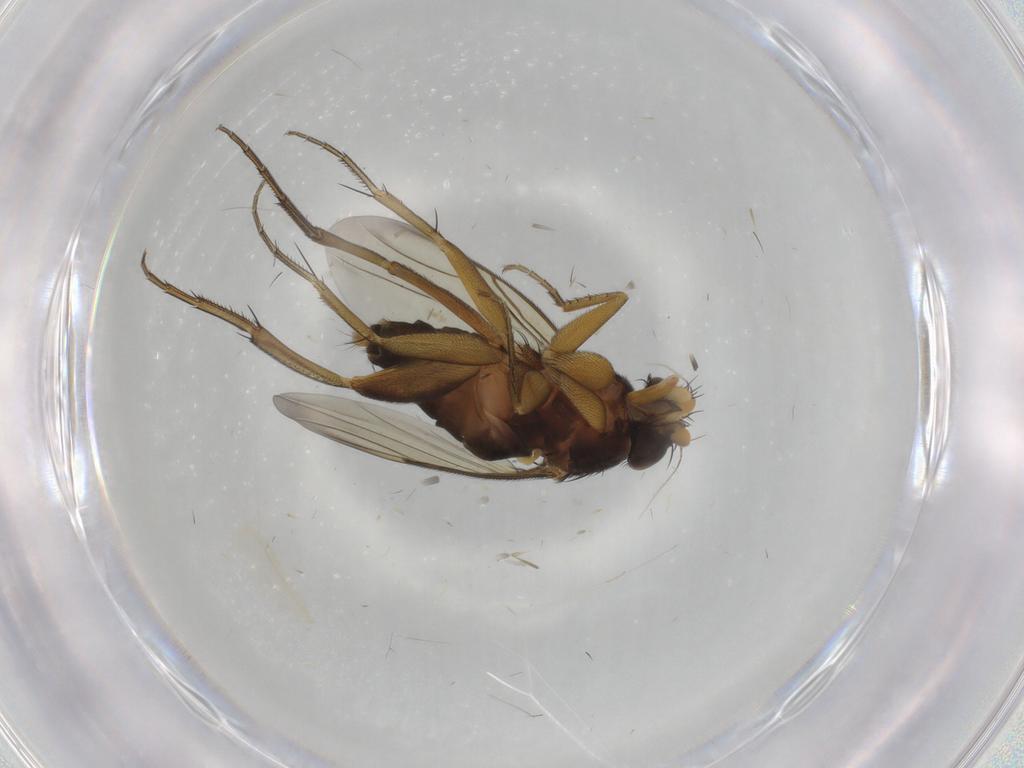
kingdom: Animalia
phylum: Arthropoda
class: Insecta
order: Diptera
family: Phoridae
